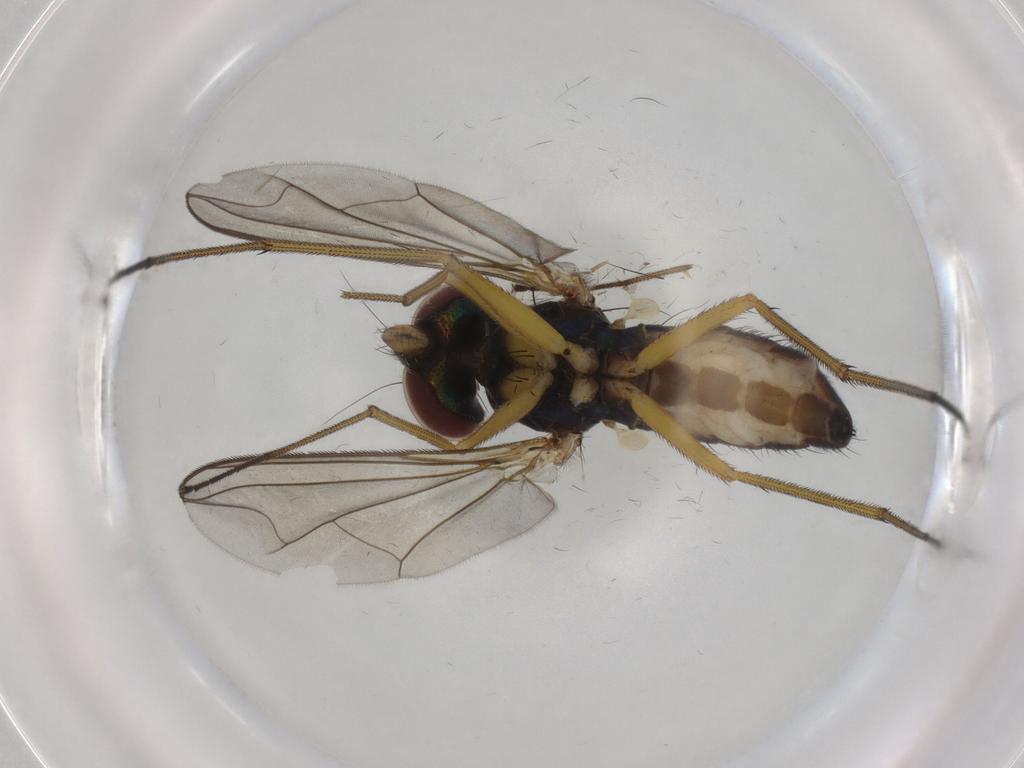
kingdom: Animalia
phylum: Arthropoda
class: Insecta
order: Diptera
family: Dolichopodidae
